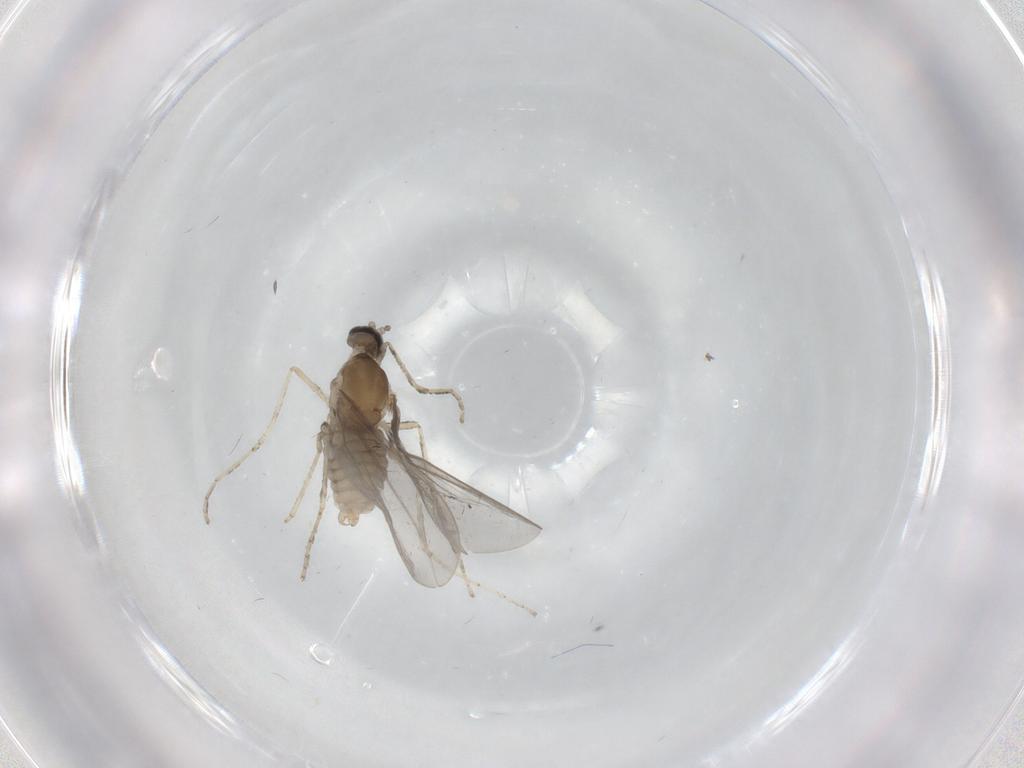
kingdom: Animalia
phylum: Arthropoda
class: Insecta
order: Diptera
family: Cecidomyiidae
